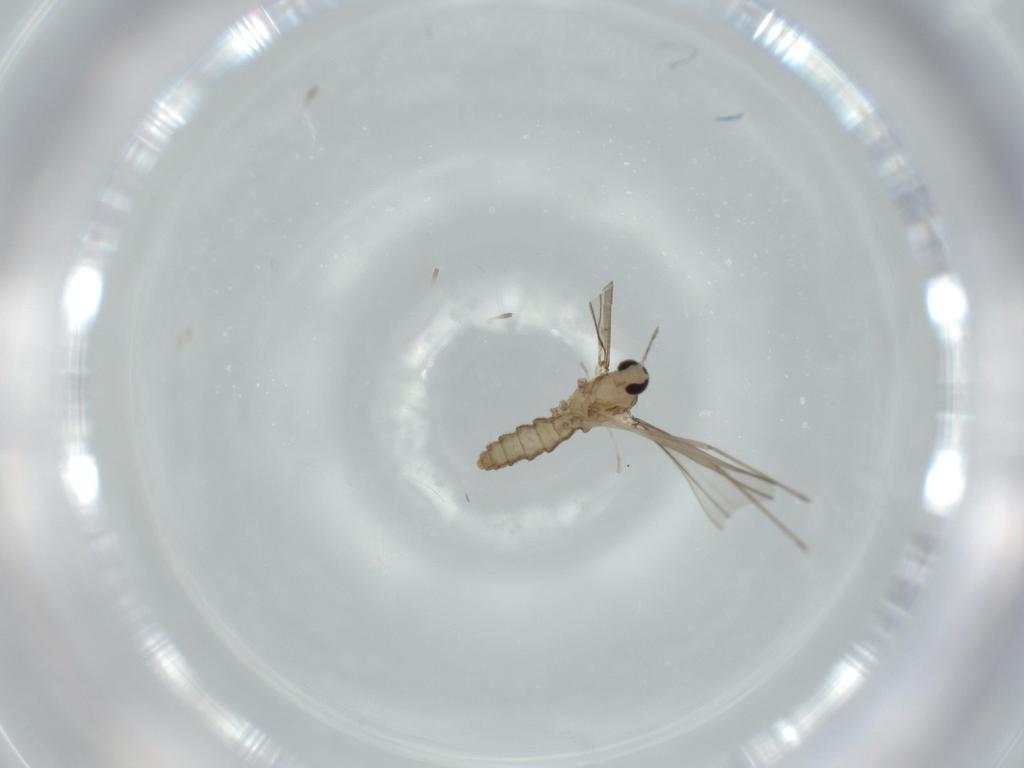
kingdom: Animalia
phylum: Arthropoda
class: Insecta
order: Diptera
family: Cecidomyiidae
